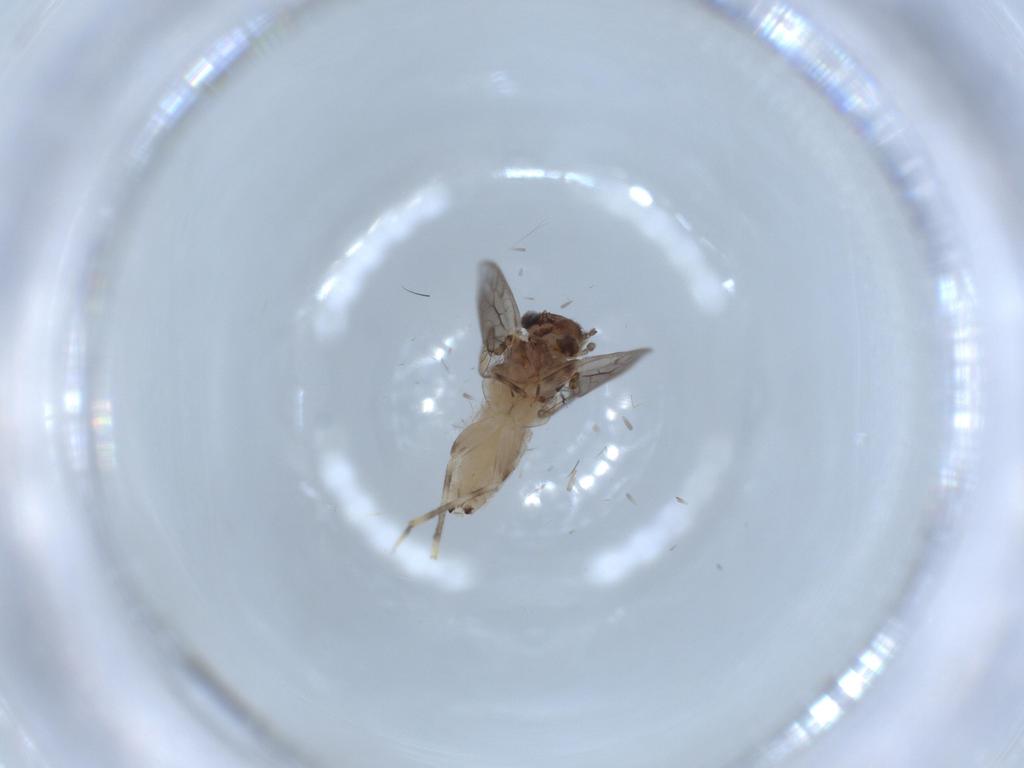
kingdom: Animalia
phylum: Arthropoda
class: Insecta
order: Psocodea
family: Lepidopsocidae
